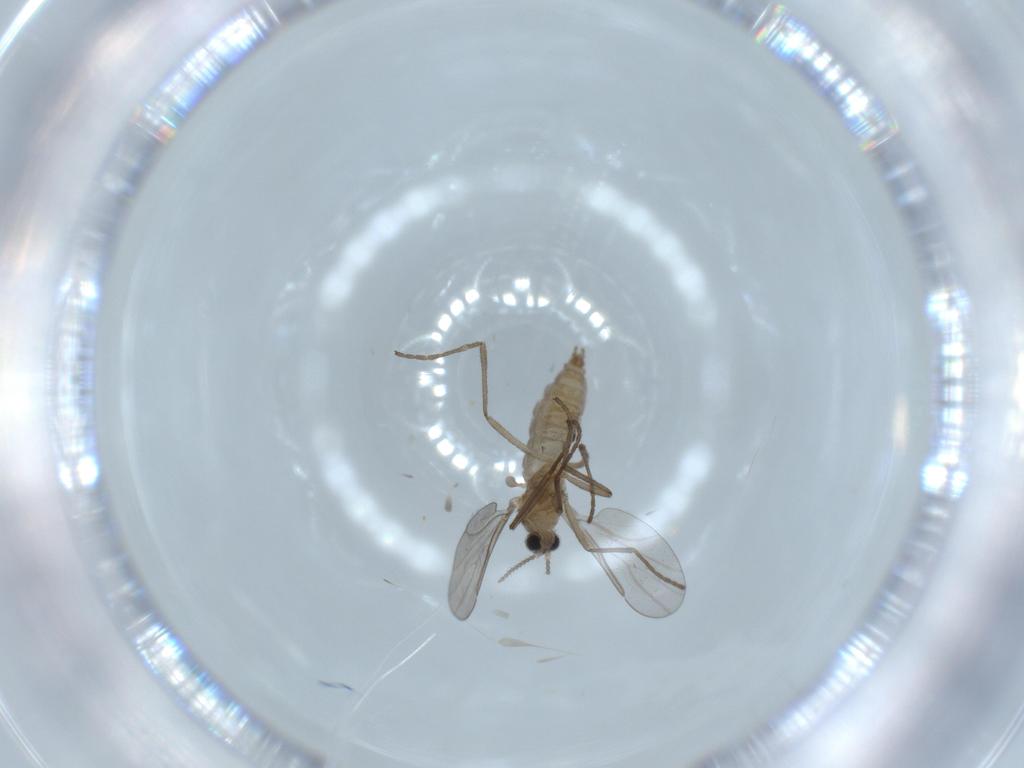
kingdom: Animalia
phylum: Arthropoda
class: Insecta
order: Diptera
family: Cecidomyiidae
